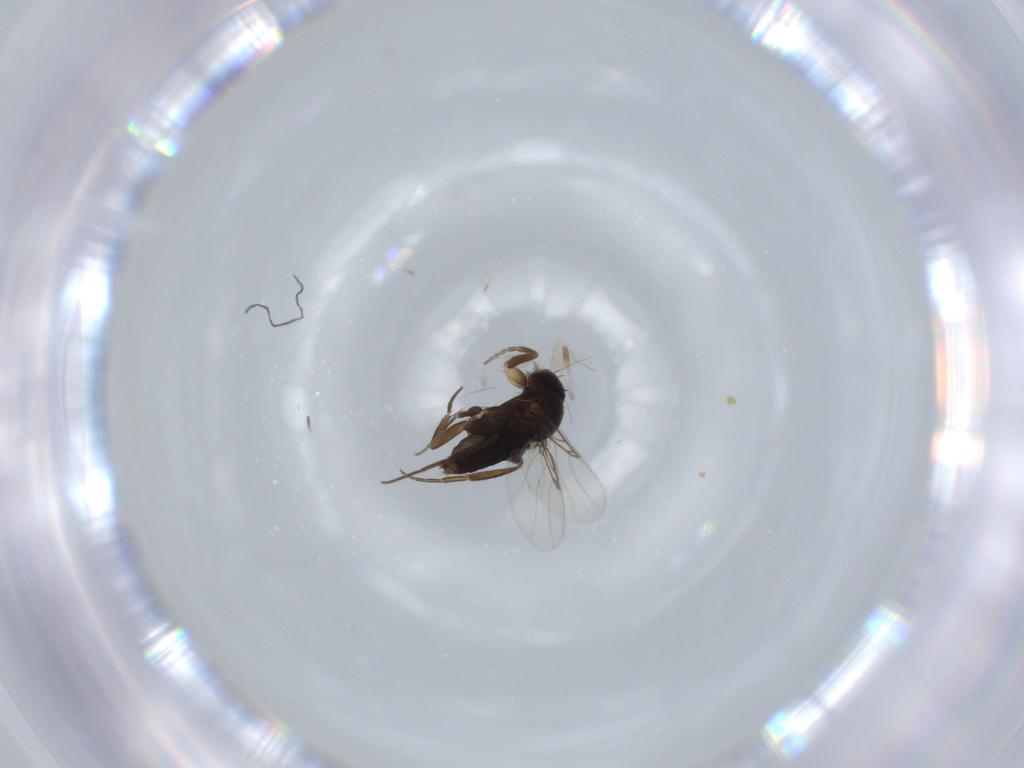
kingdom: Animalia
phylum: Arthropoda
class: Insecta
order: Diptera
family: Phoridae
